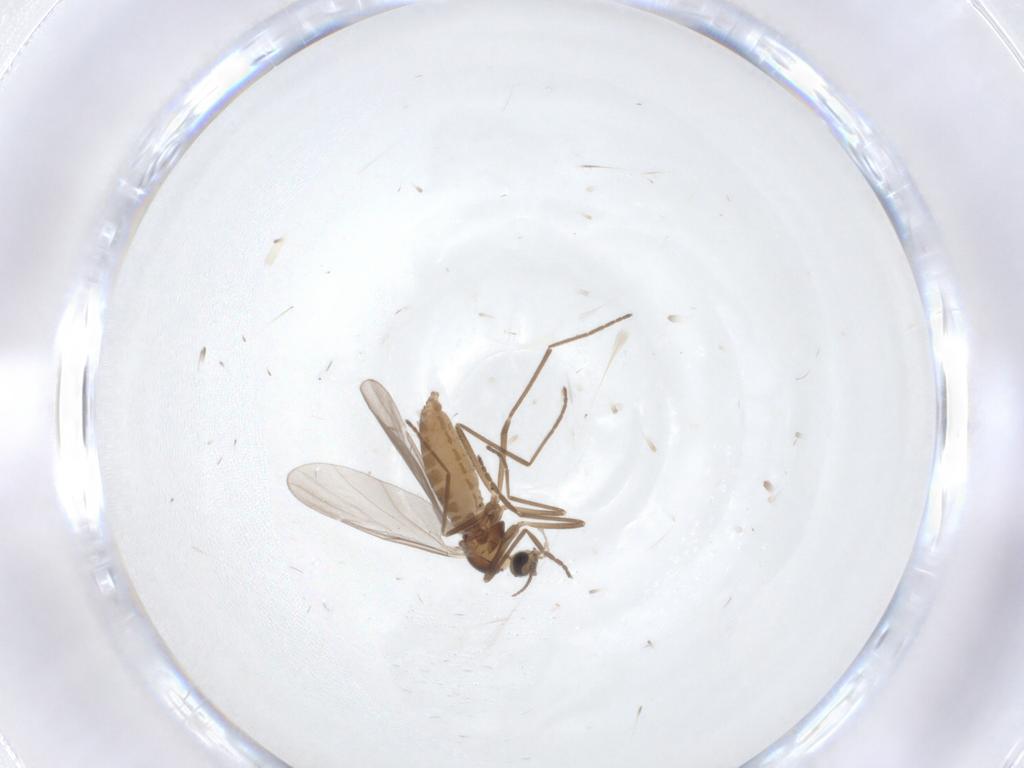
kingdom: Animalia
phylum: Arthropoda
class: Insecta
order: Diptera
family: Cecidomyiidae
